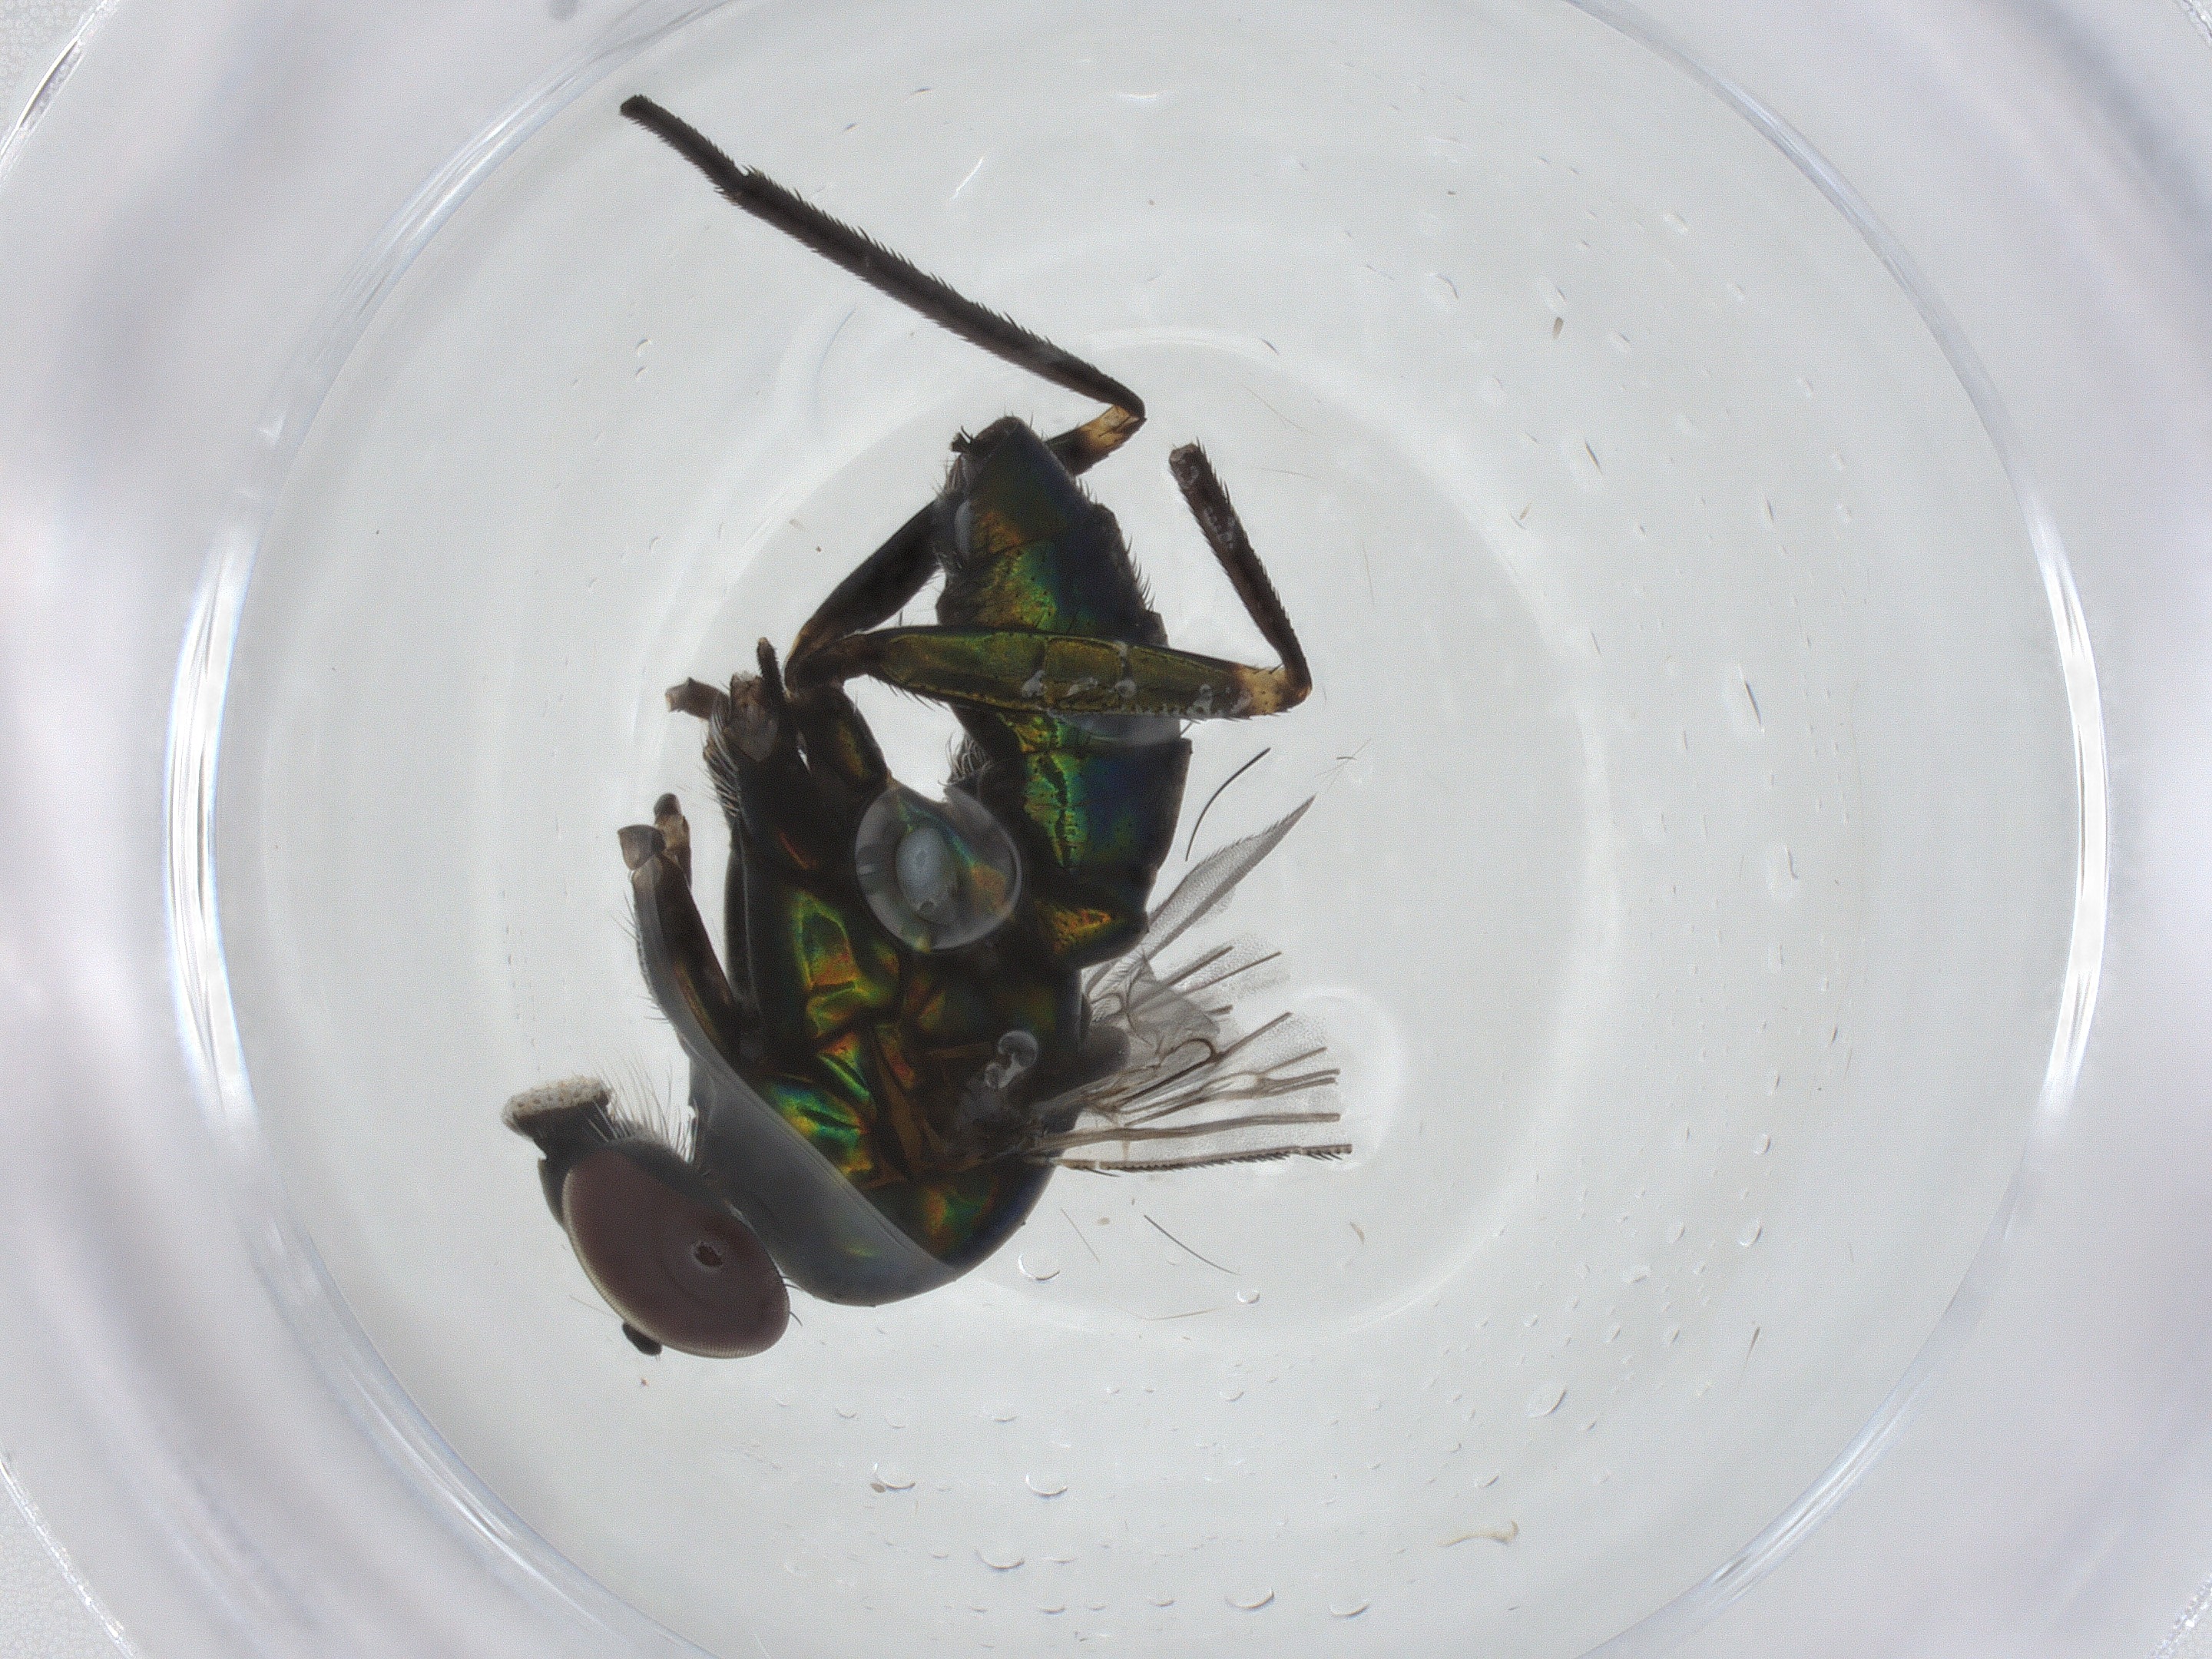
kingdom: Animalia
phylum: Arthropoda
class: Insecta
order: Diptera
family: Dolichopodidae
